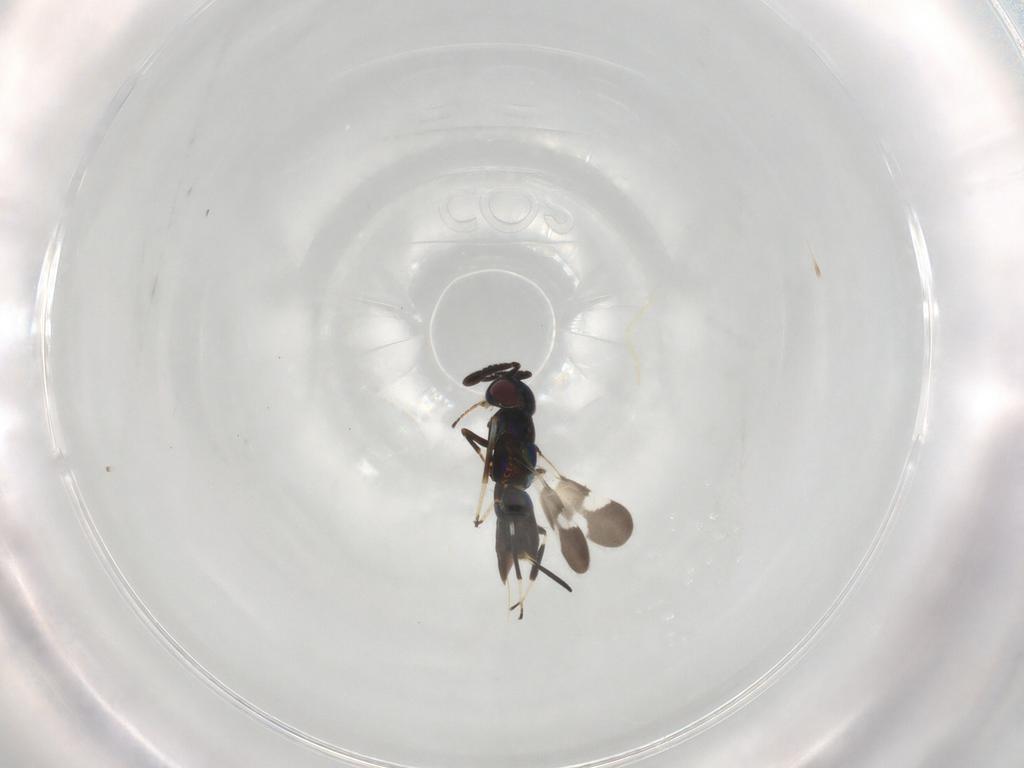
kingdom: Animalia
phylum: Arthropoda
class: Insecta
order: Hymenoptera
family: Encyrtidae
